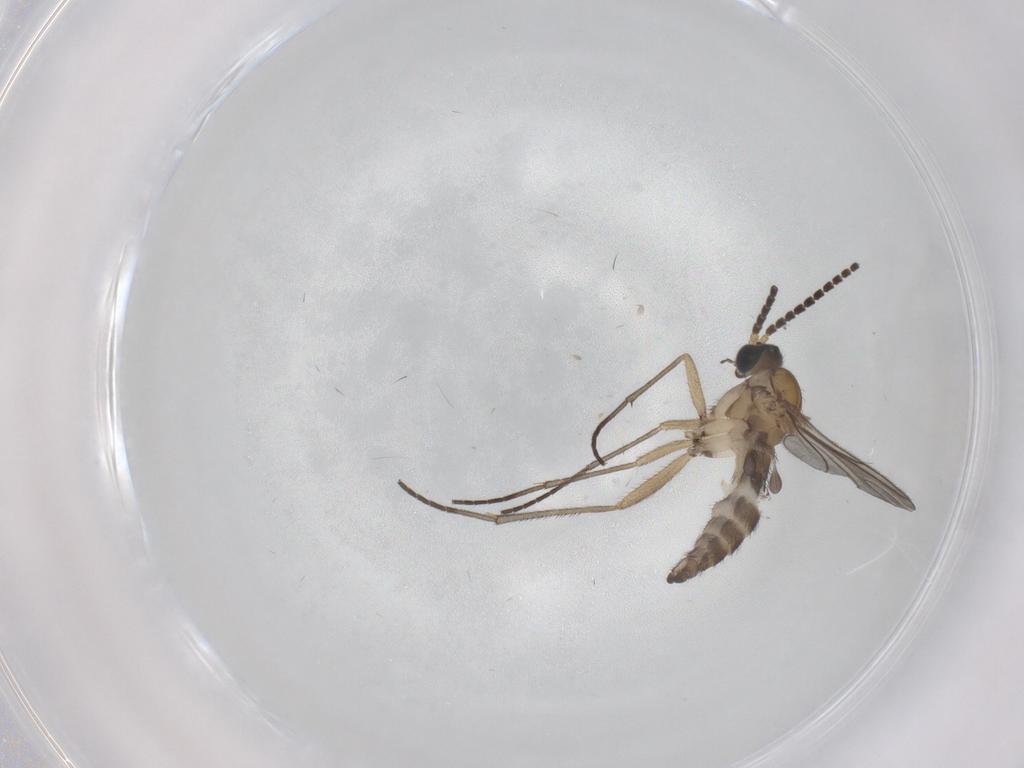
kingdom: Animalia
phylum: Arthropoda
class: Insecta
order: Diptera
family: Sciaridae
